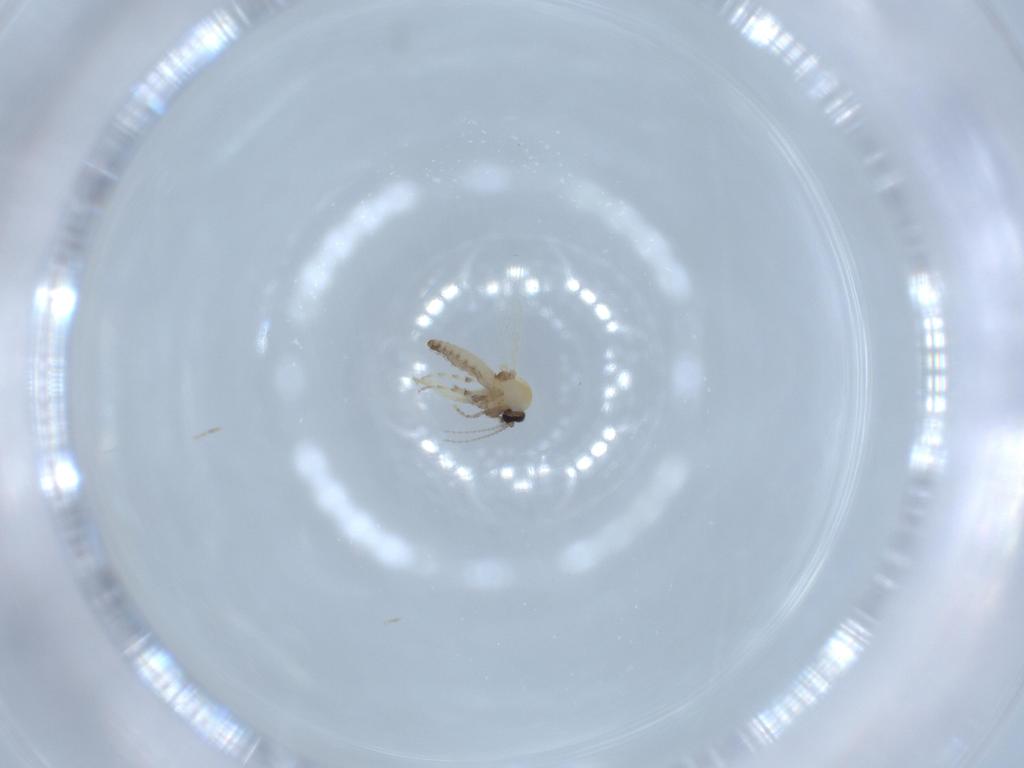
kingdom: Animalia
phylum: Arthropoda
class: Insecta
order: Diptera
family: Ceratopogonidae
